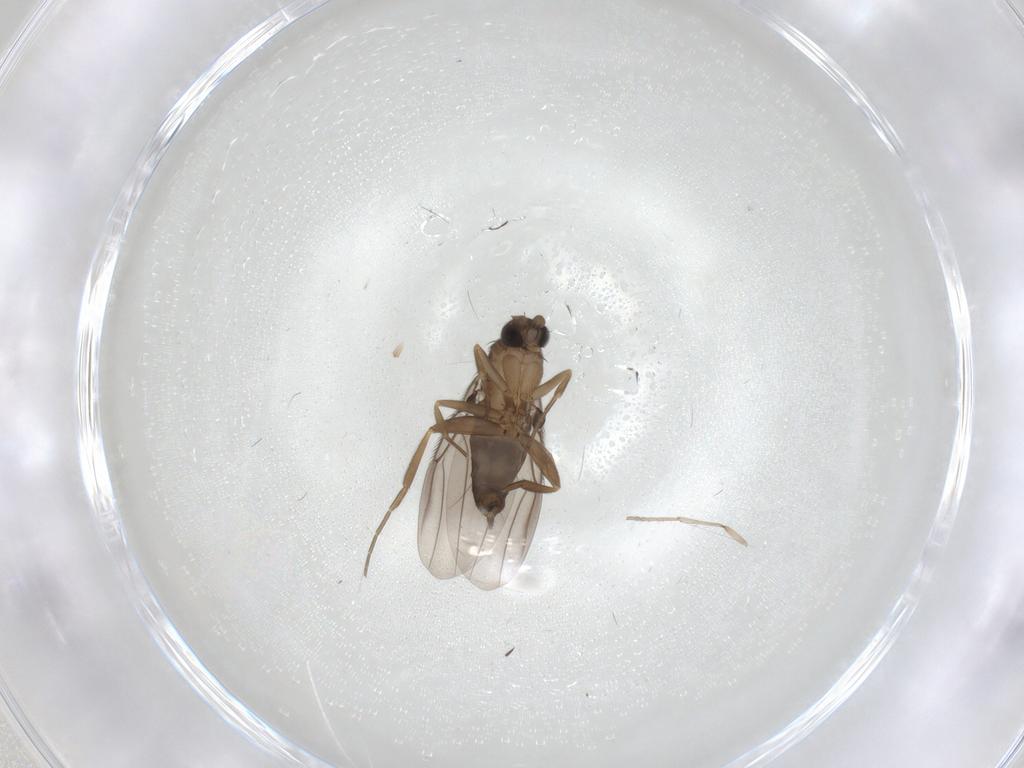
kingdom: Animalia
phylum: Arthropoda
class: Insecta
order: Diptera
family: Psychodidae
